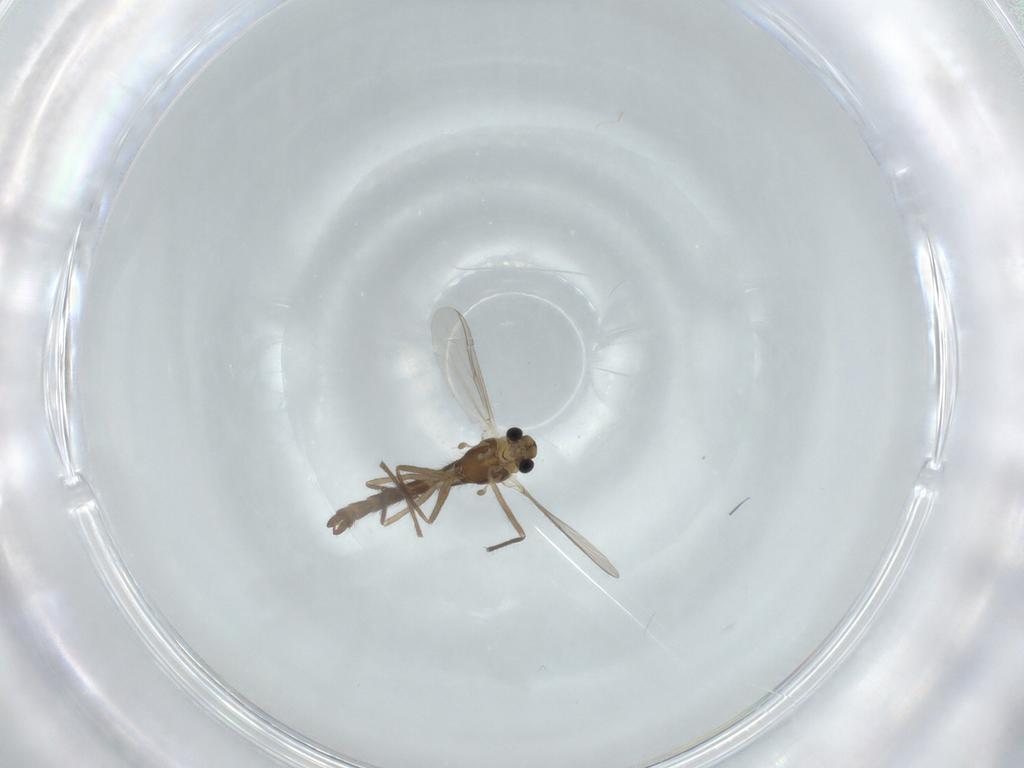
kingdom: Animalia
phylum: Arthropoda
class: Insecta
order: Diptera
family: Chironomidae
